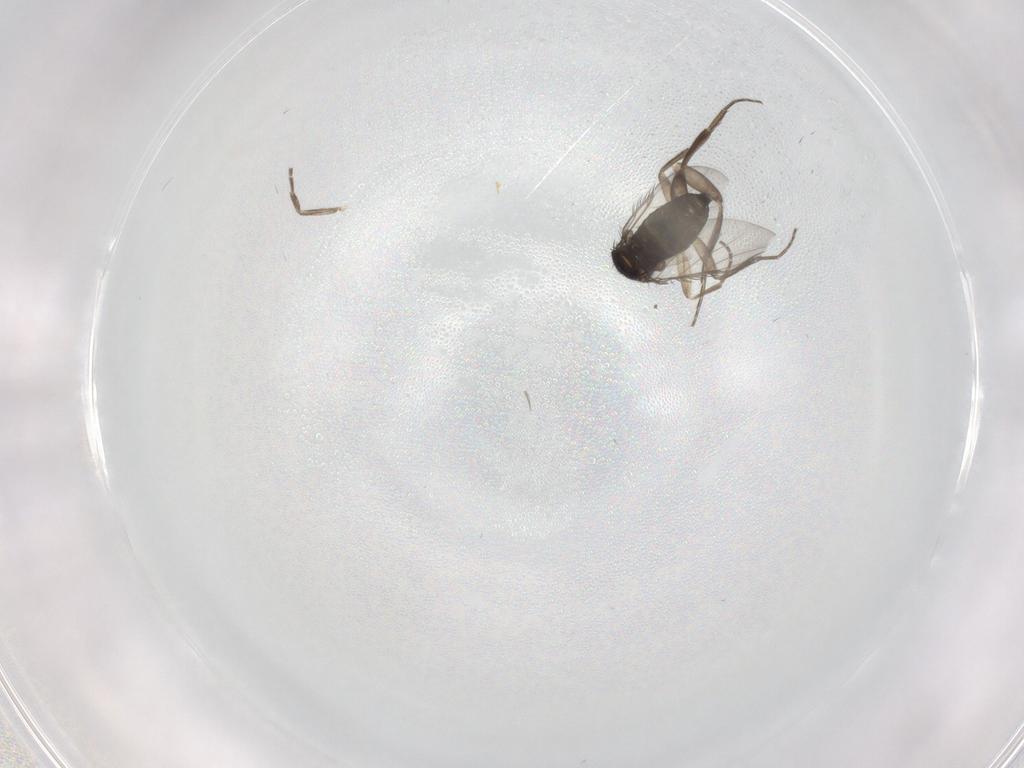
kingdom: Animalia
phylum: Arthropoda
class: Insecta
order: Diptera
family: Phoridae
